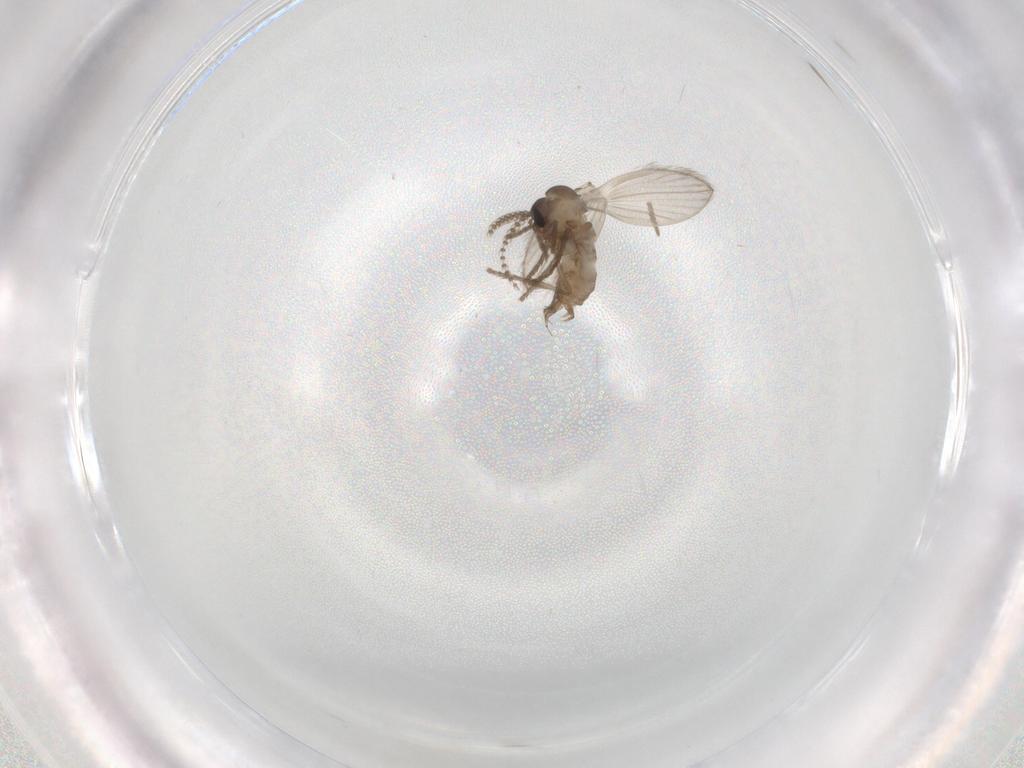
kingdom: Animalia
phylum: Arthropoda
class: Insecta
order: Diptera
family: Psychodidae
